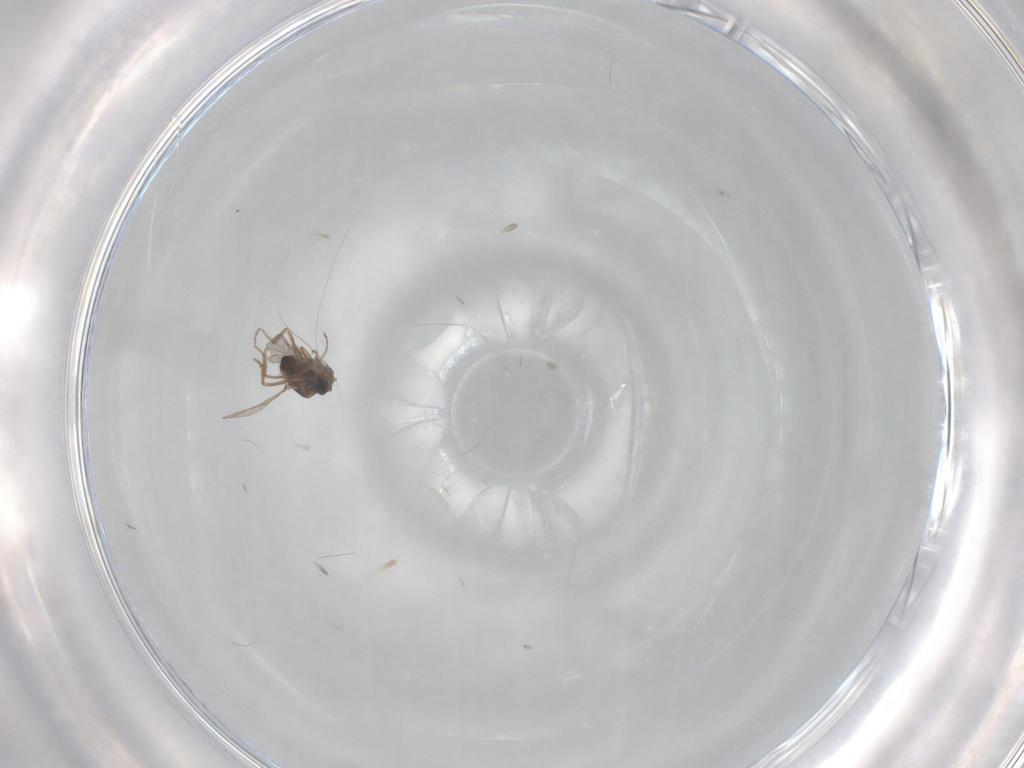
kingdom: Animalia
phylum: Arthropoda
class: Insecta
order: Diptera
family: Ceratopogonidae
